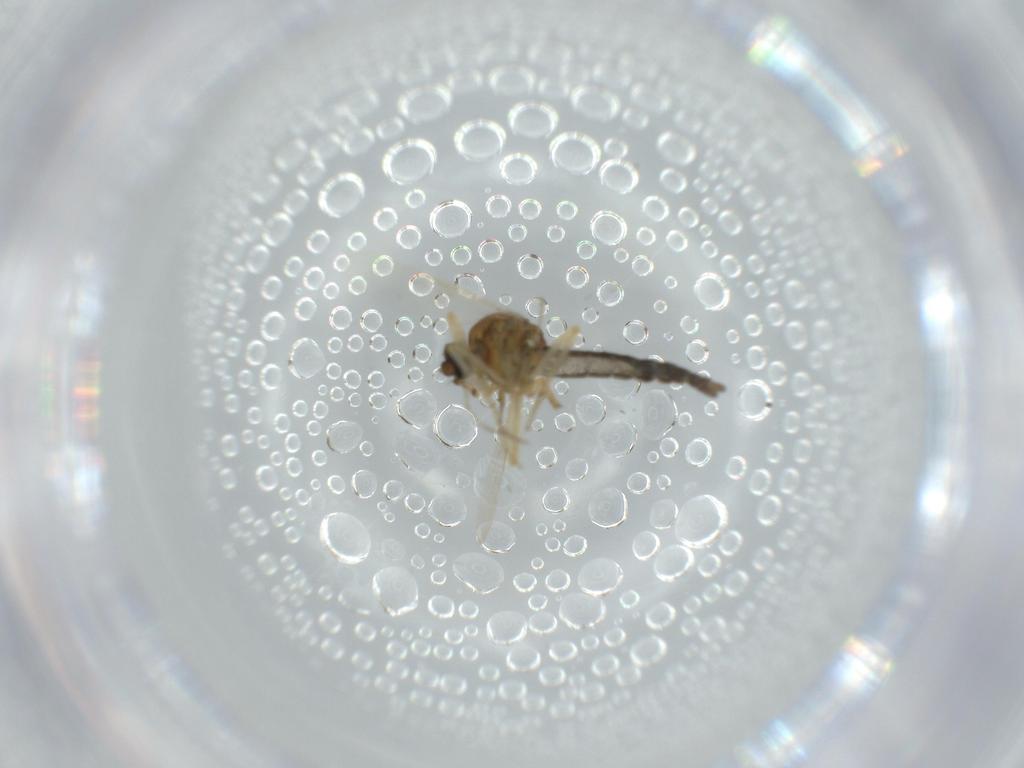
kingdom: Animalia
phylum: Arthropoda
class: Insecta
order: Diptera
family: Ceratopogonidae
